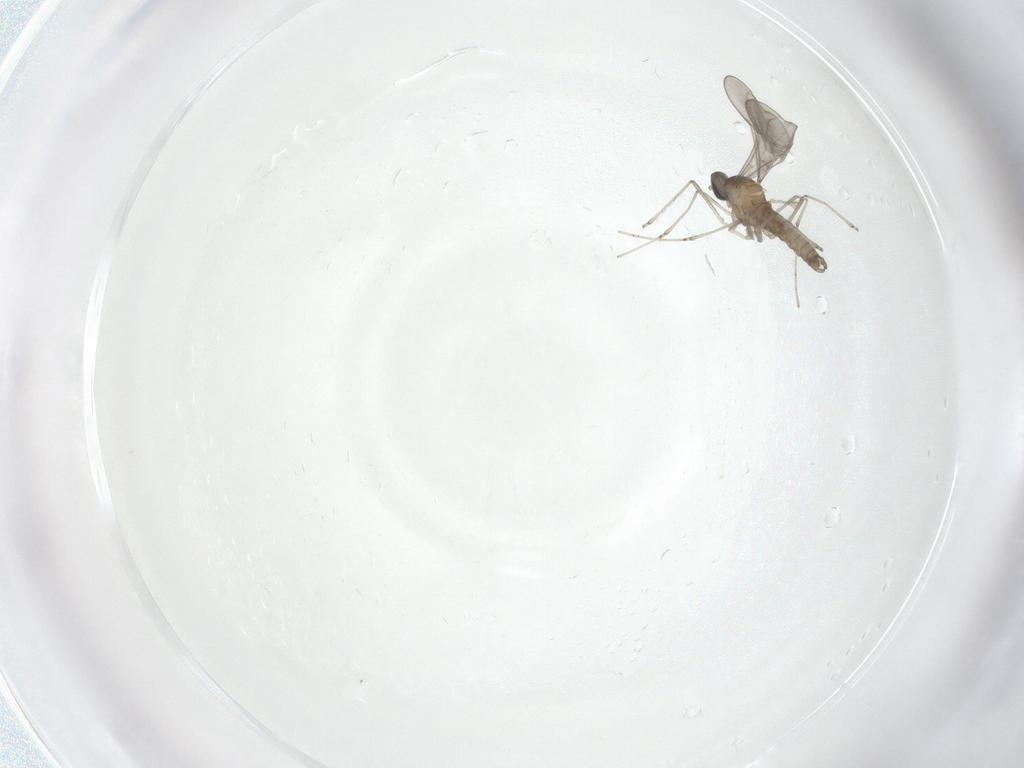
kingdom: Animalia
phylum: Arthropoda
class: Insecta
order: Diptera
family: Cecidomyiidae
